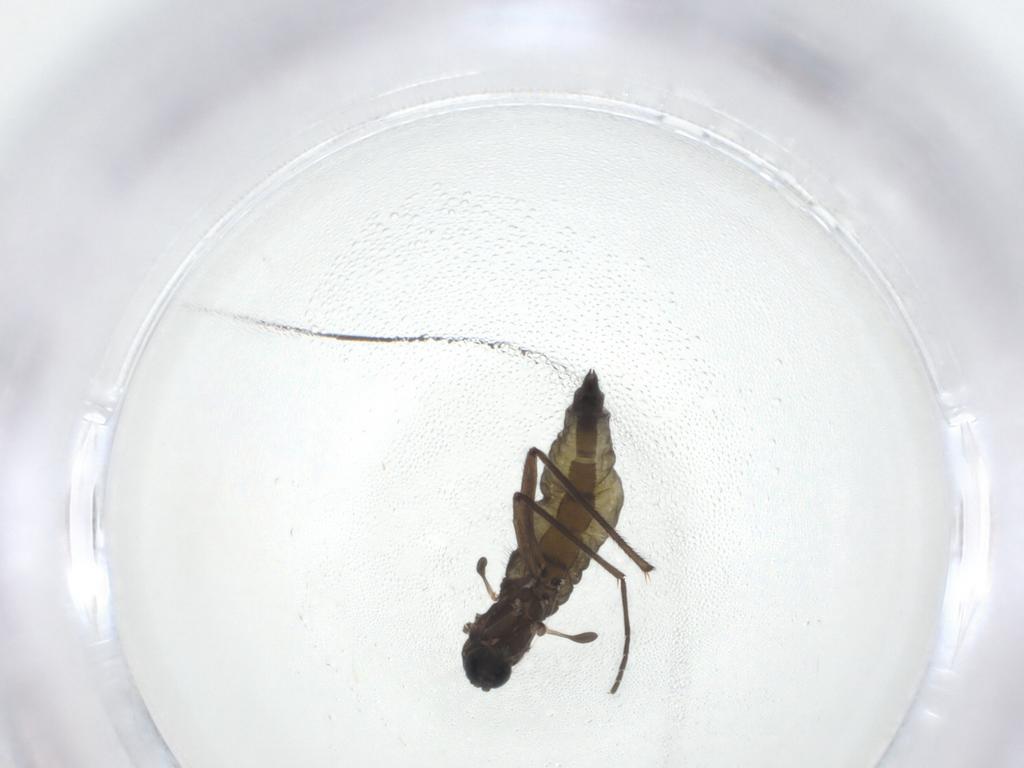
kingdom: Animalia
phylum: Arthropoda
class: Insecta
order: Diptera
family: Sciaridae
